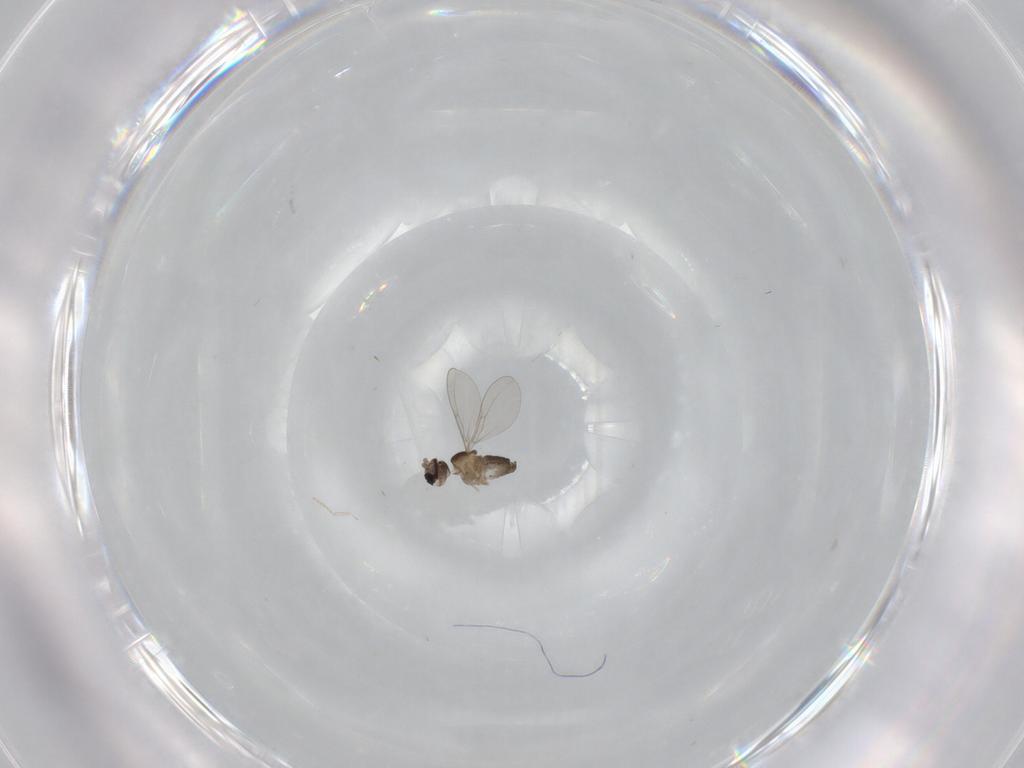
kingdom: Animalia
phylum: Arthropoda
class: Insecta
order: Diptera
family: Cecidomyiidae
